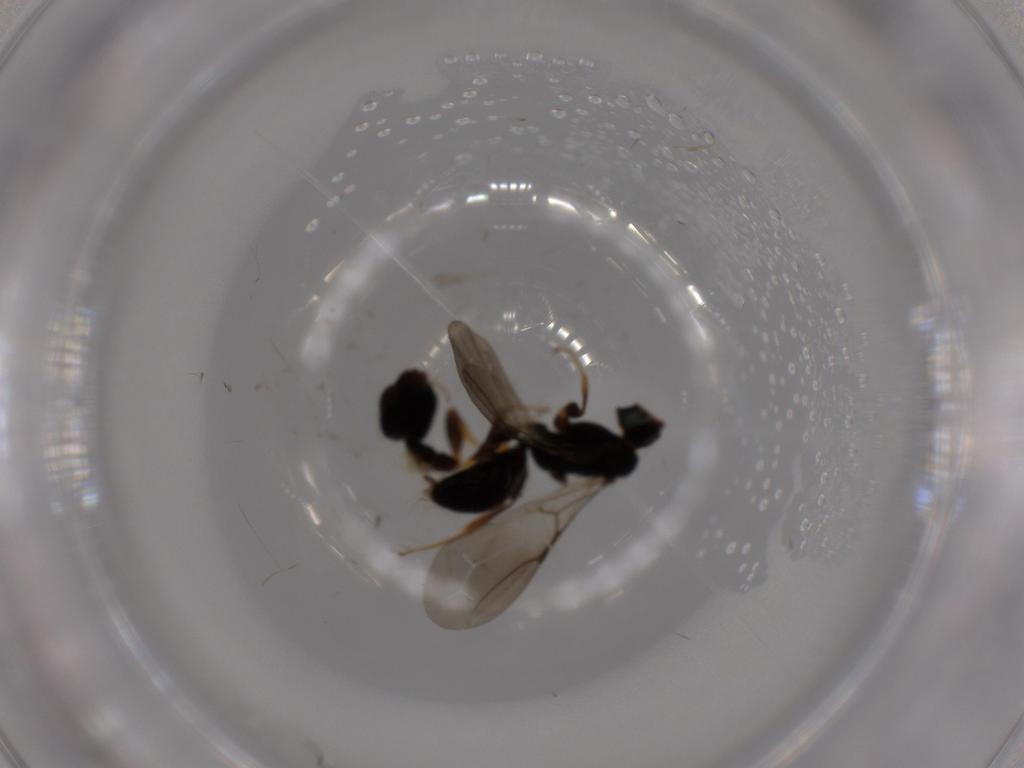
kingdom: Animalia
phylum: Arthropoda
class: Insecta
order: Hymenoptera
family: Bethylidae
